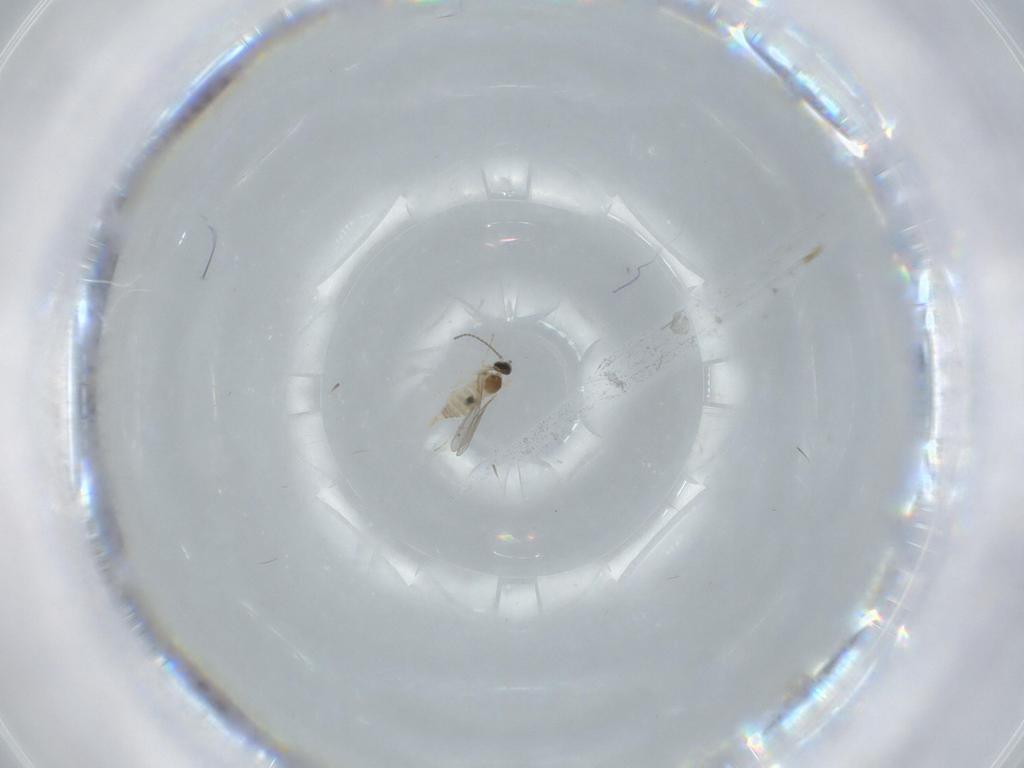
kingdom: Animalia
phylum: Arthropoda
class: Insecta
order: Diptera
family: Cecidomyiidae
